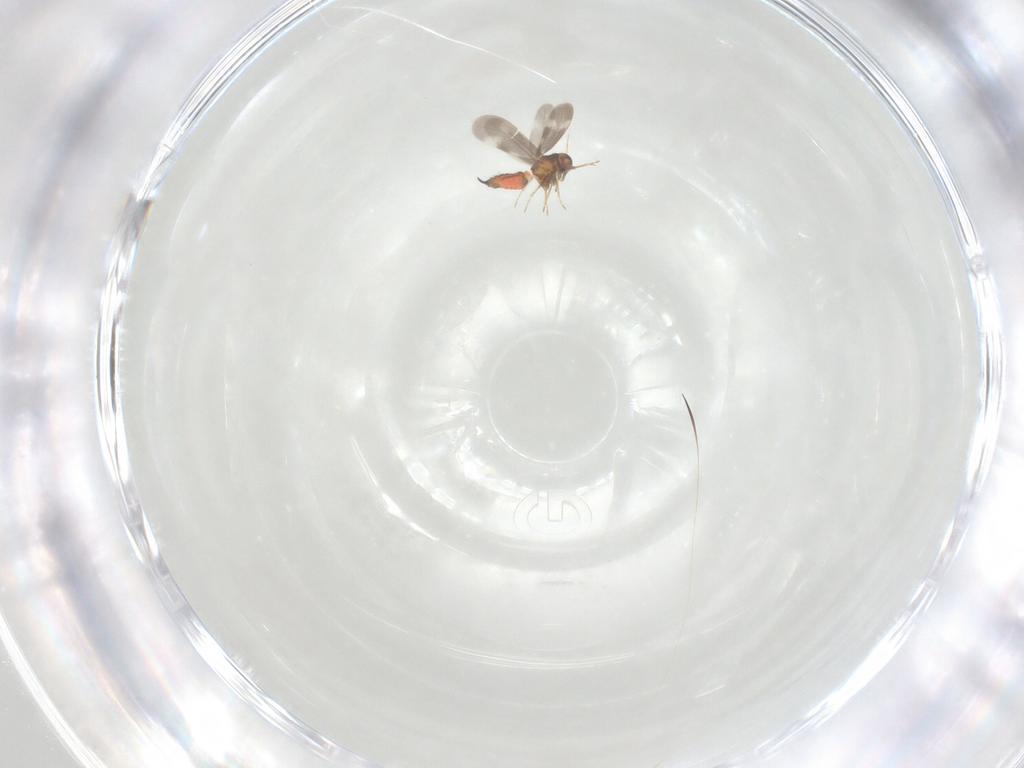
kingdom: Animalia
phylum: Arthropoda
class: Insecta
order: Hemiptera
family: Aleyrodidae
